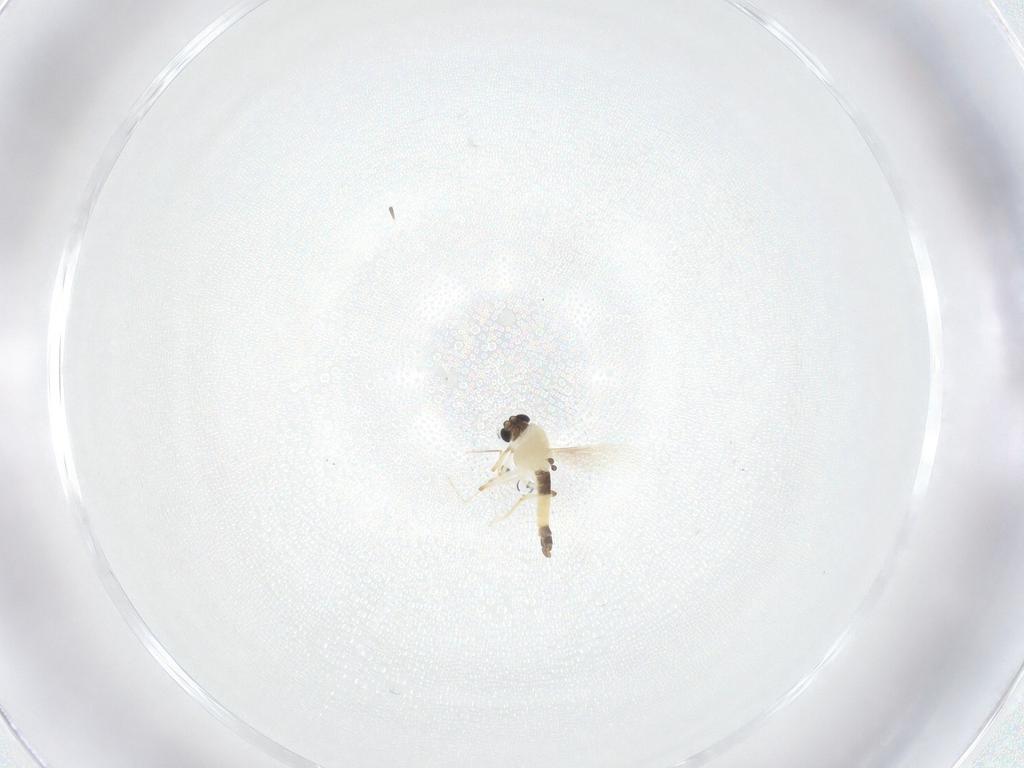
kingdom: Animalia
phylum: Arthropoda
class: Insecta
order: Diptera
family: Chironomidae
